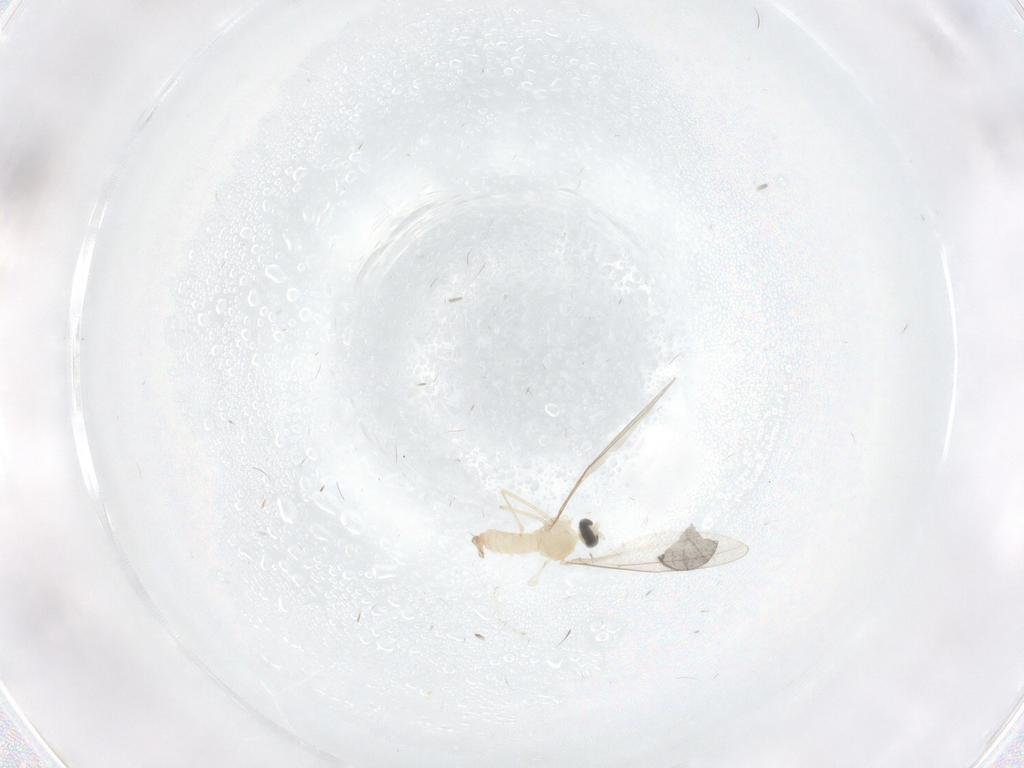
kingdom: Animalia
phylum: Arthropoda
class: Insecta
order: Diptera
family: Cecidomyiidae
